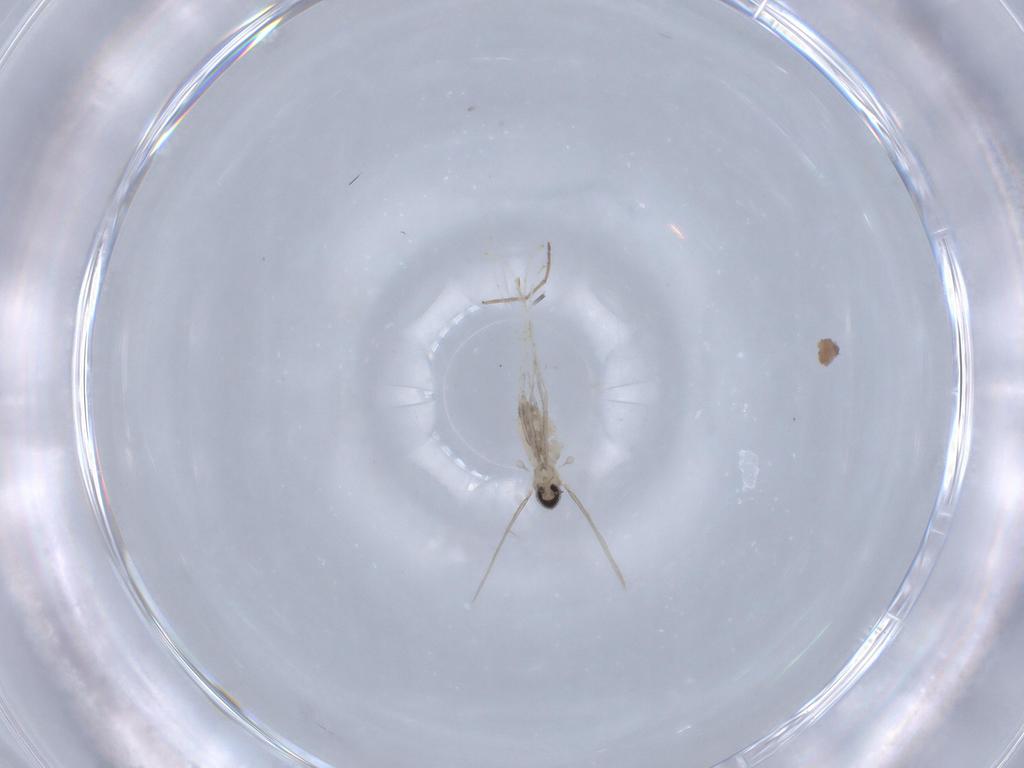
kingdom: Animalia
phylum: Arthropoda
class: Insecta
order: Diptera
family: Cecidomyiidae
